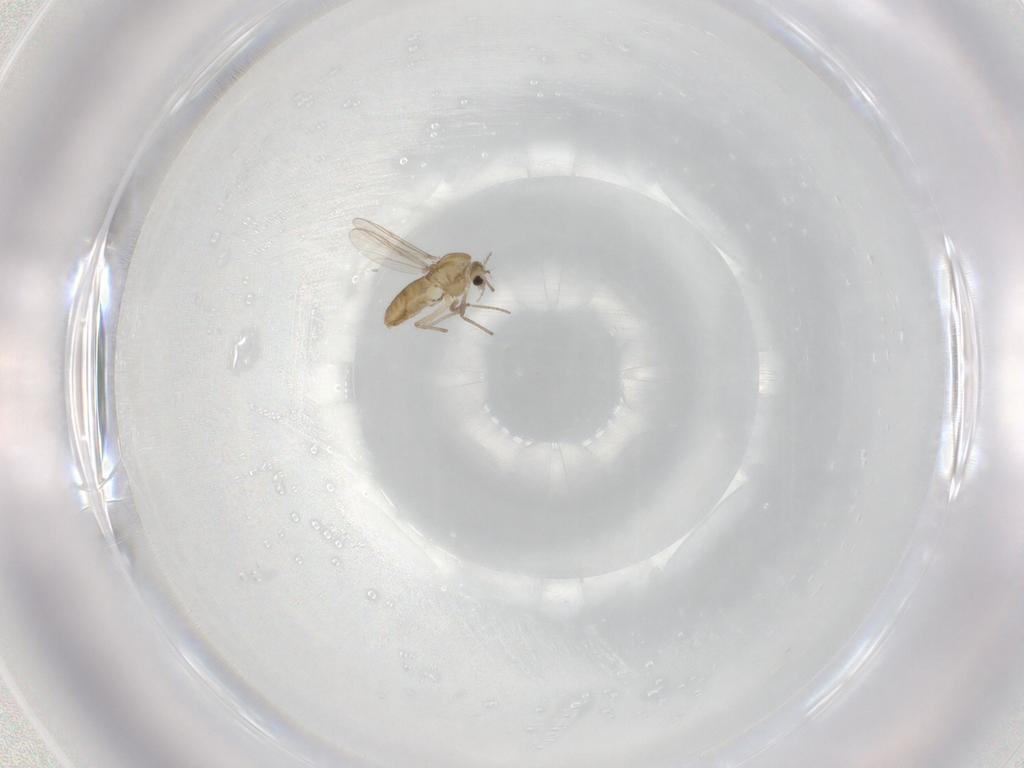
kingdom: Animalia
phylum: Arthropoda
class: Insecta
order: Diptera
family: Chironomidae
